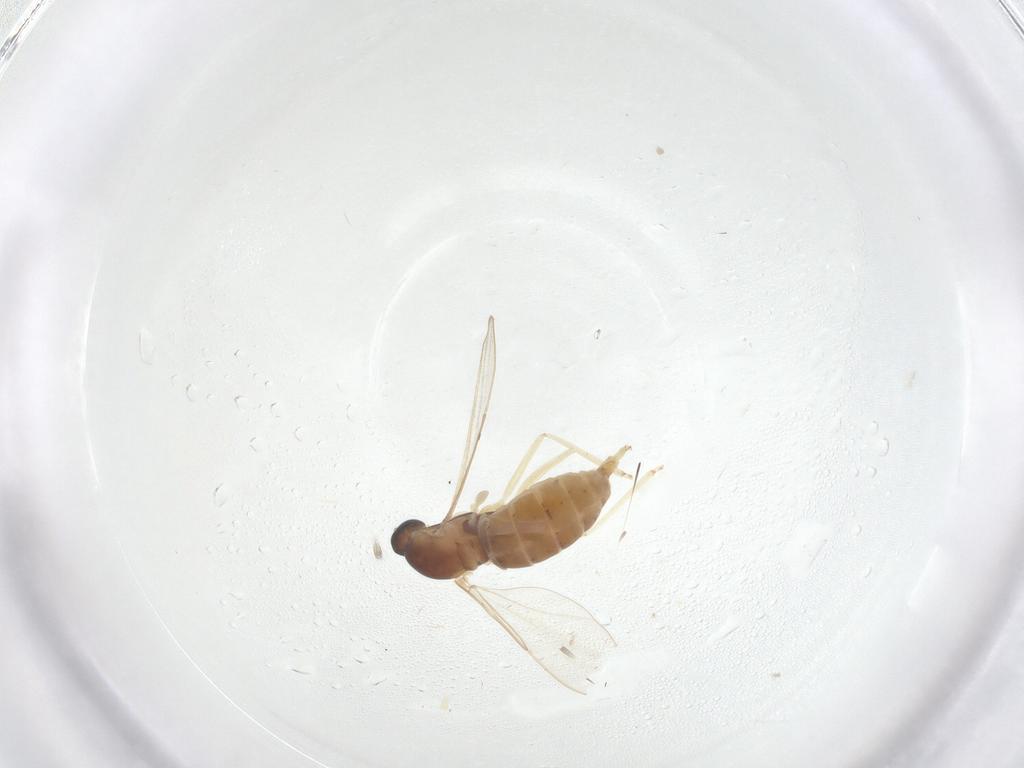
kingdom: Animalia
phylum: Arthropoda
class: Insecta
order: Diptera
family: Cecidomyiidae
